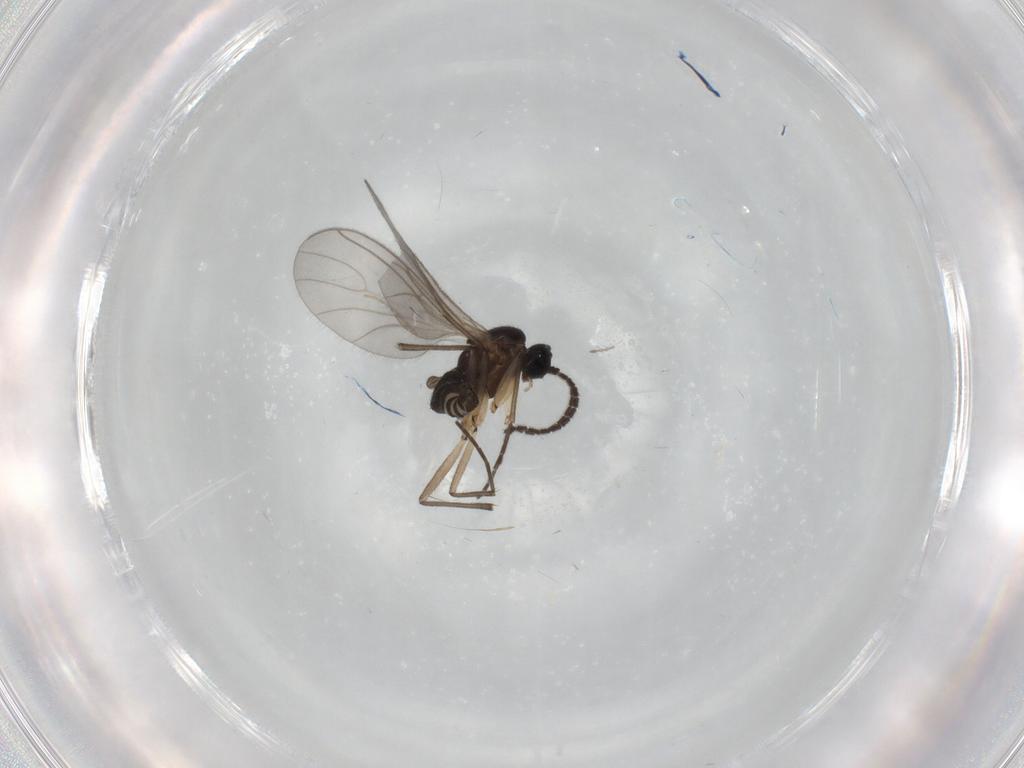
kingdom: Animalia
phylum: Arthropoda
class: Insecta
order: Diptera
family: Sciaridae
